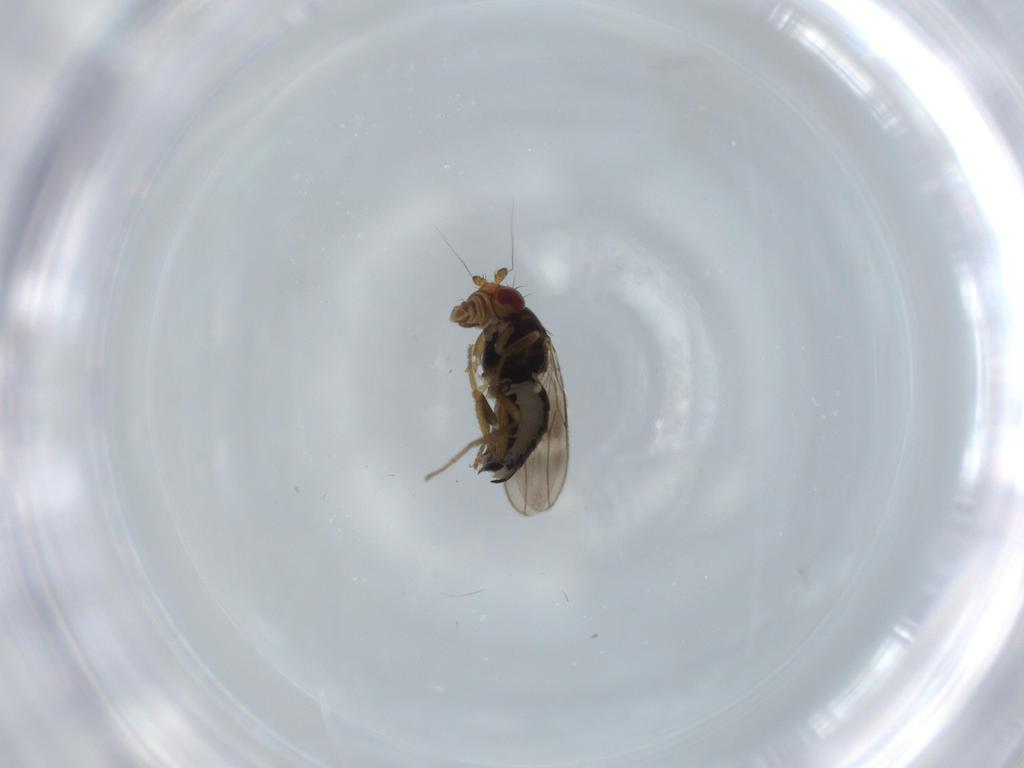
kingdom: Animalia
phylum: Arthropoda
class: Insecta
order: Diptera
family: Sphaeroceridae
